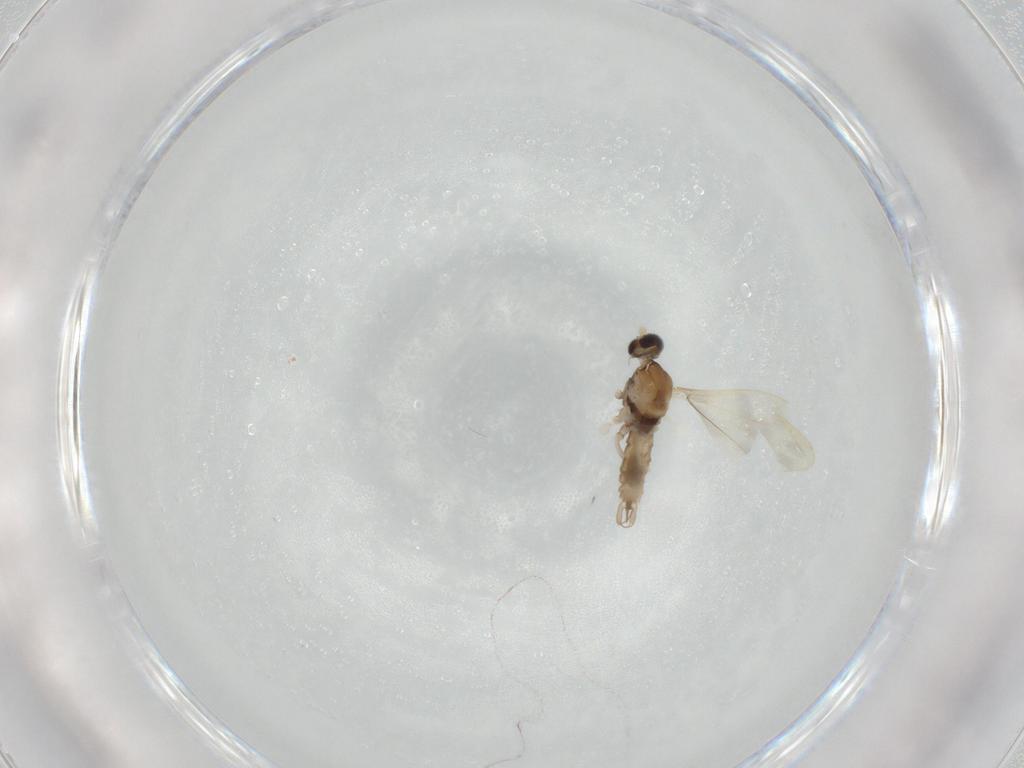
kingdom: Animalia
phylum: Arthropoda
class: Insecta
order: Diptera
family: Cecidomyiidae
